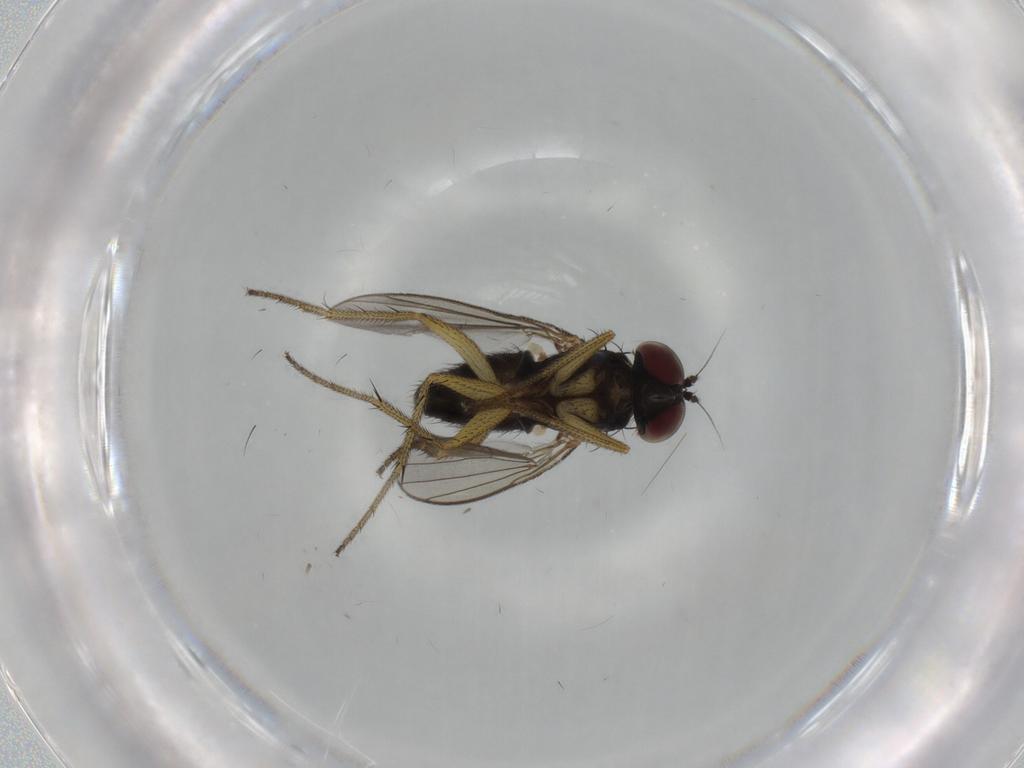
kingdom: Animalia
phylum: Arthropoda
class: Insecta
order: Diptera
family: Dolichopodidae
